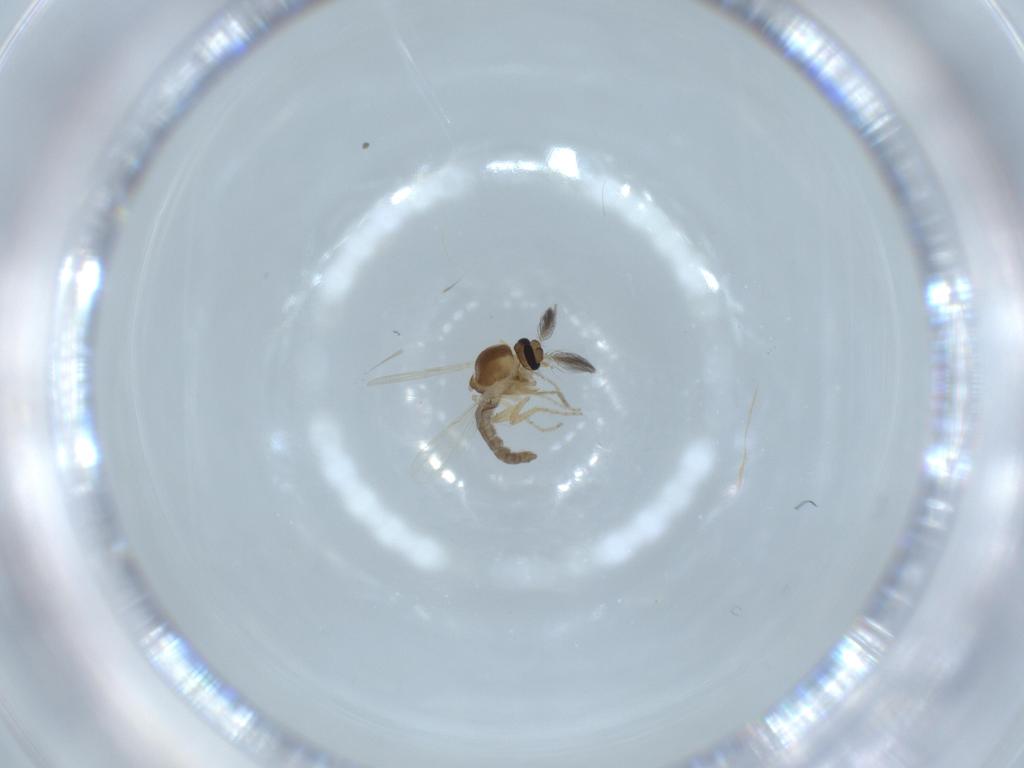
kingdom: Animalia
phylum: Arthropoda
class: Insecta
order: Diptera
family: Ceratopogonidae
